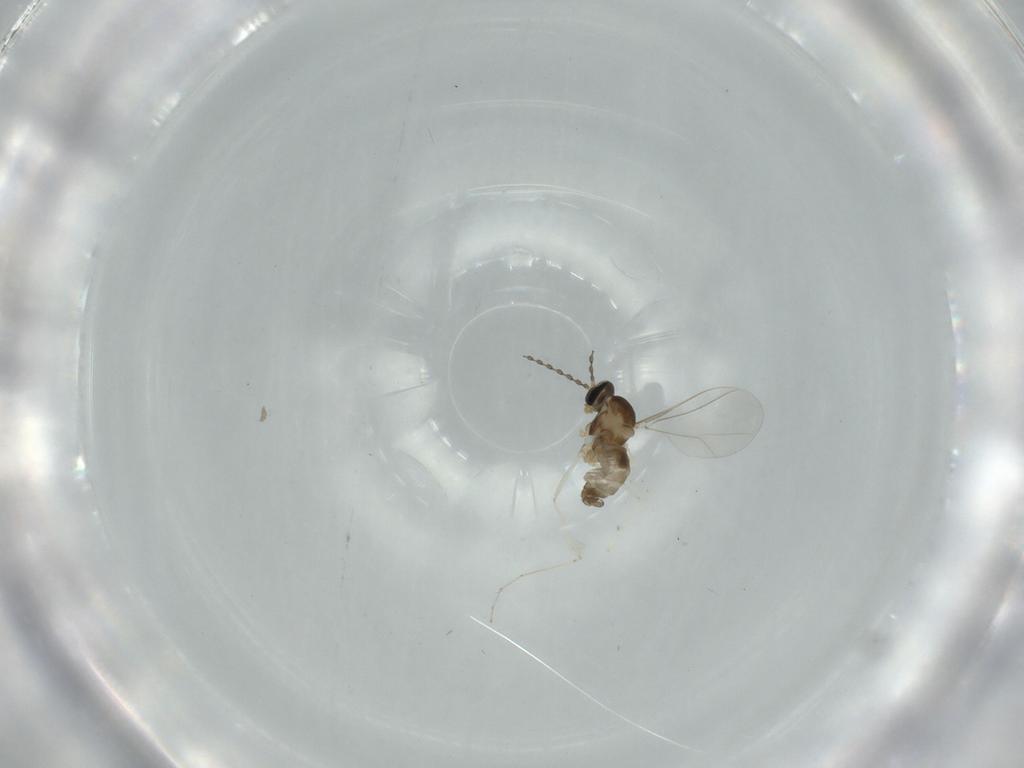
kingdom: Animalia
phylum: Arthropoda
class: Insecta
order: Diptera
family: Cecidomyiidae
